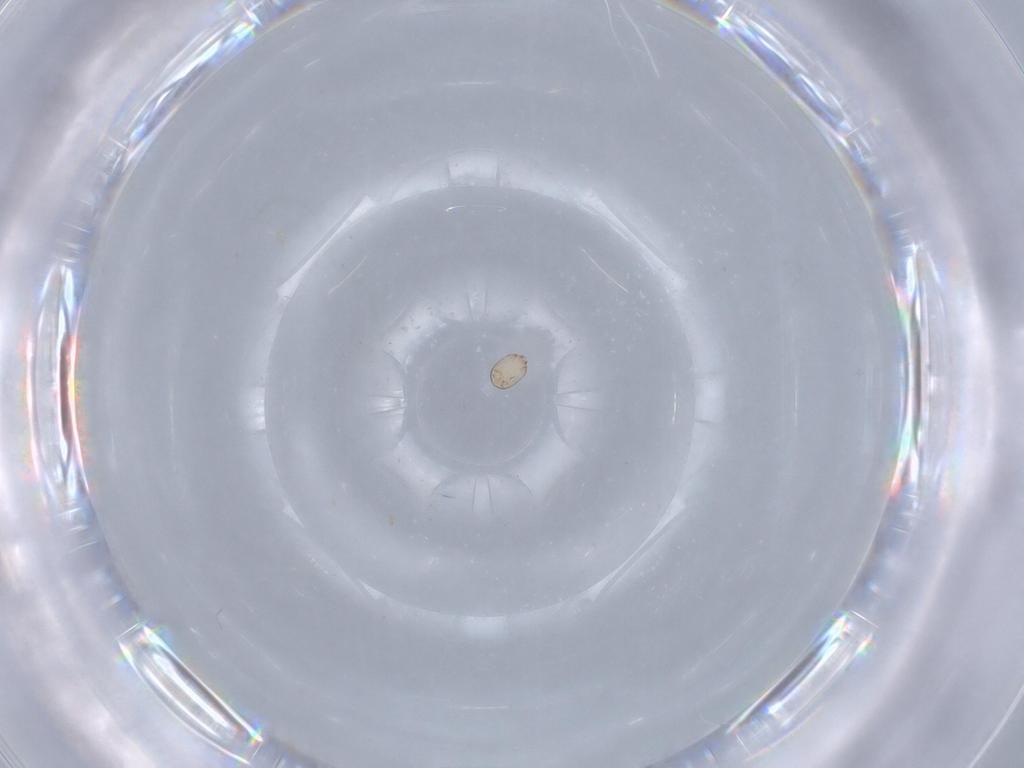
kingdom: Animalia
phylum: Arthropoda
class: Arachnida
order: Sarcoptiformes
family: Acaridae
